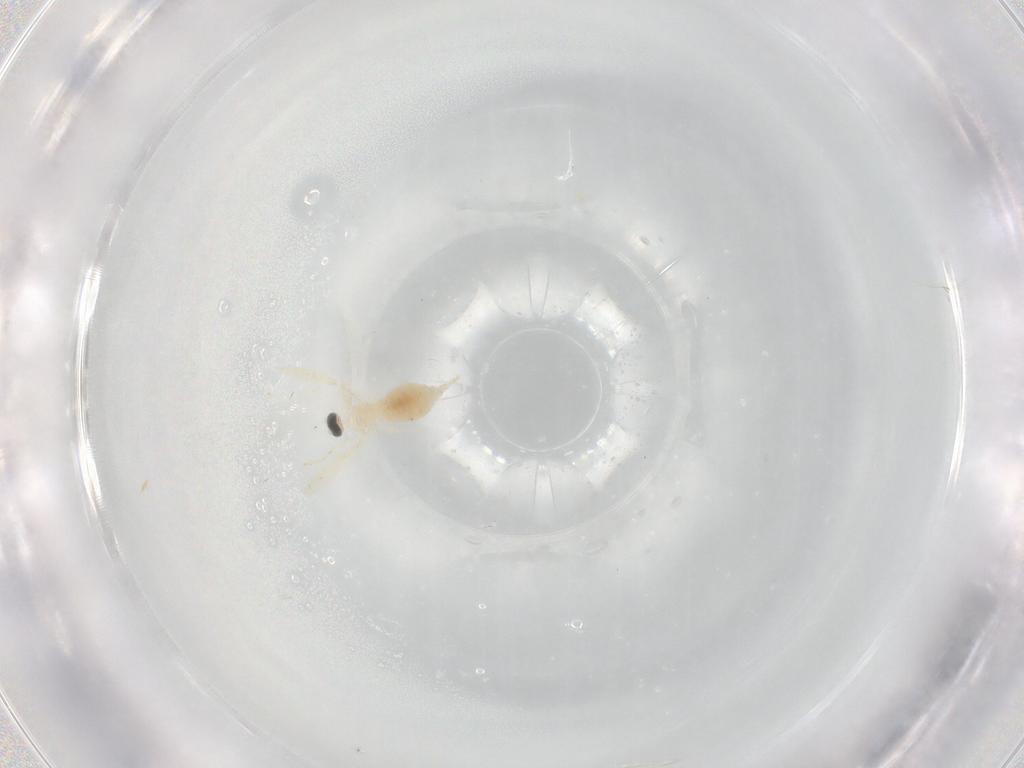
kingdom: Animalia
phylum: Arthropoda
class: Insecta
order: Diptera
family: Cecidomyiidae
